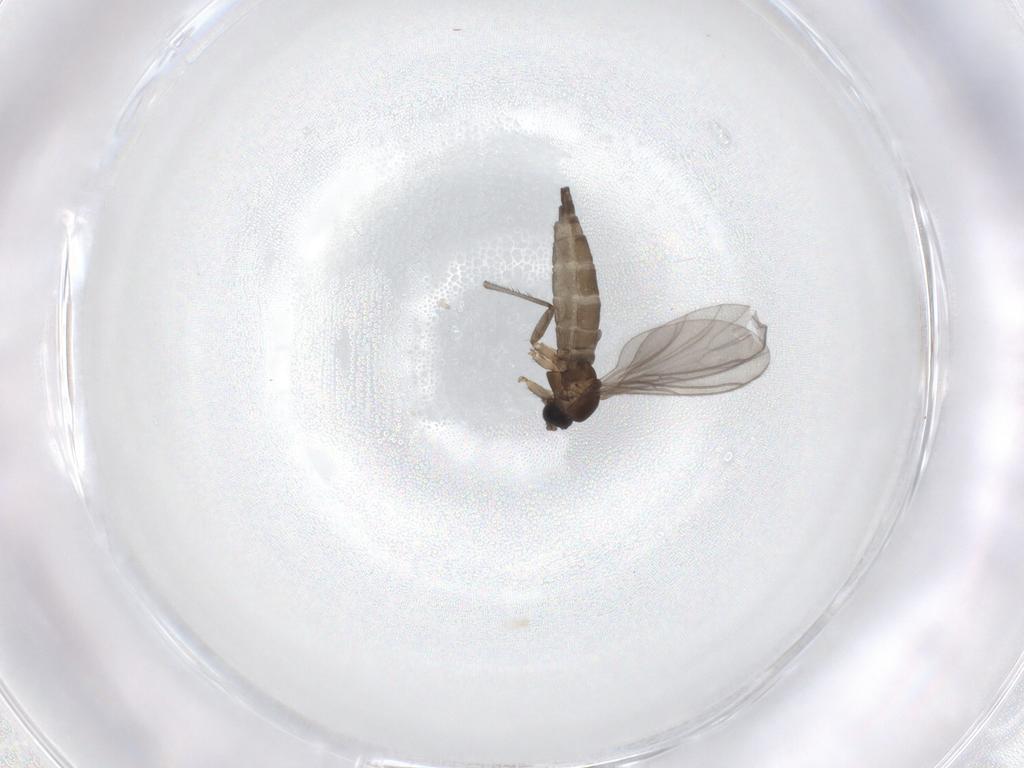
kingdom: Animalia
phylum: Arthropoda
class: Insecta
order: Diptera
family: Sciaridae
